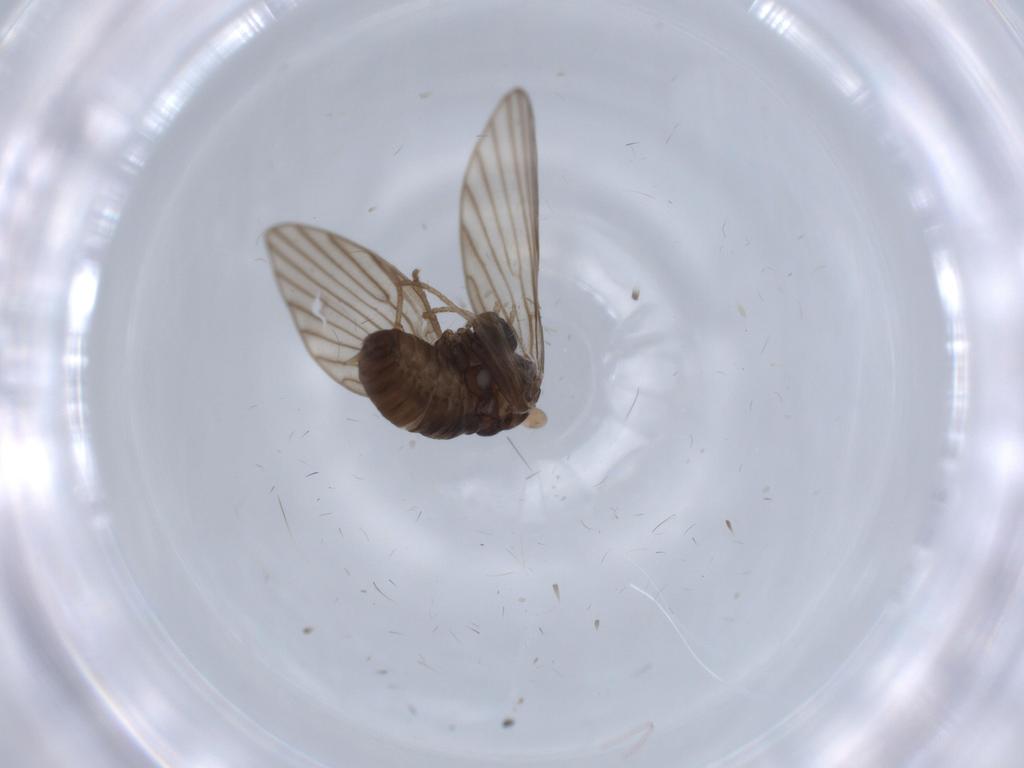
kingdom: Animalia
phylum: Arthropoda
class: Insecta
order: Diptera
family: Psychodidae
